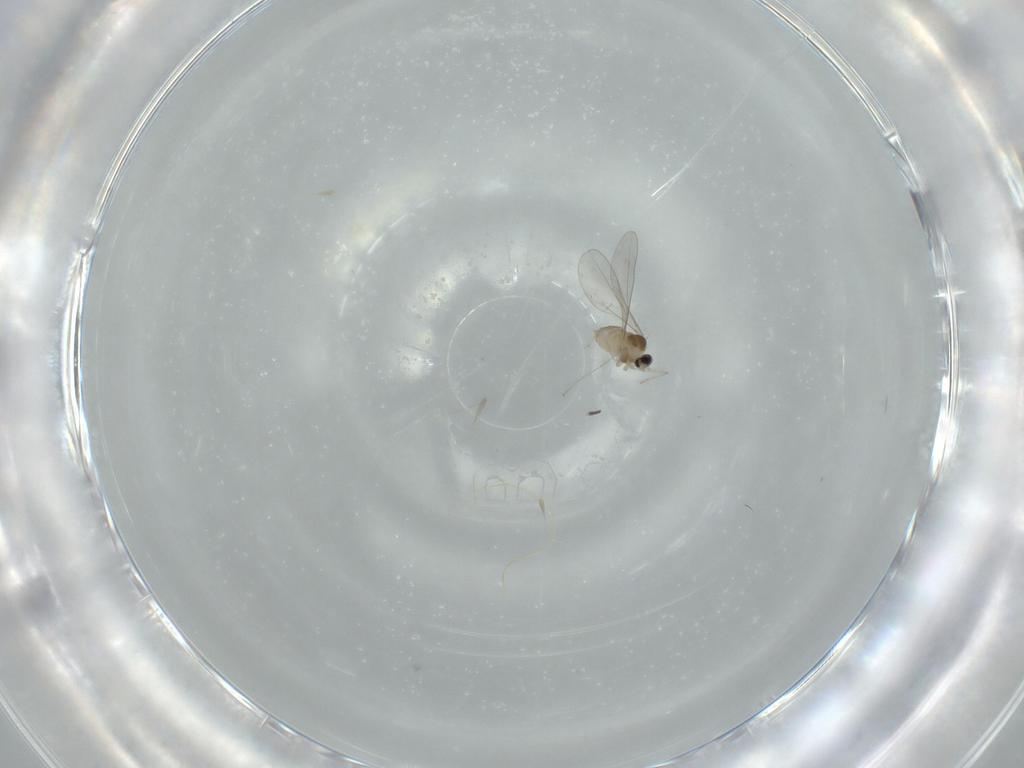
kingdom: Animalia
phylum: Arthropoda
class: Insecta
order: Diptera
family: Cecidomyiidae
